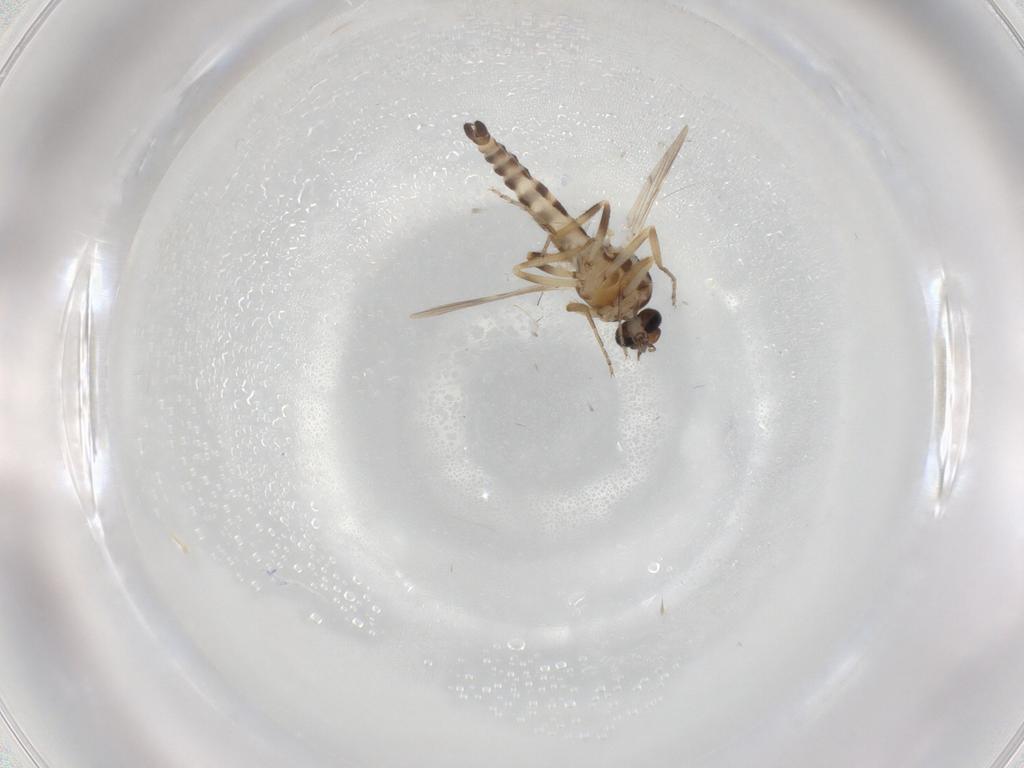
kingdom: Animalia
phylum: Arthropoda
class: Insecta
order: Diptera
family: Ceratopogonidae
